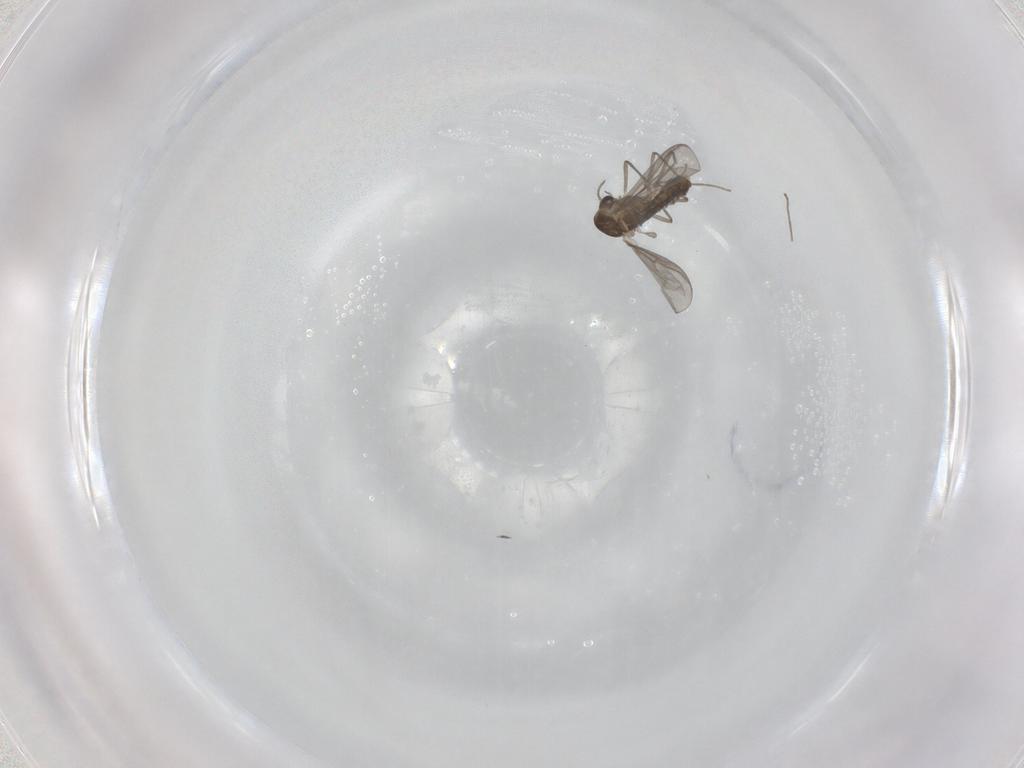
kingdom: Animalia
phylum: Arthropoda
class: Insecta
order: Diptera
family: Chironomidae
